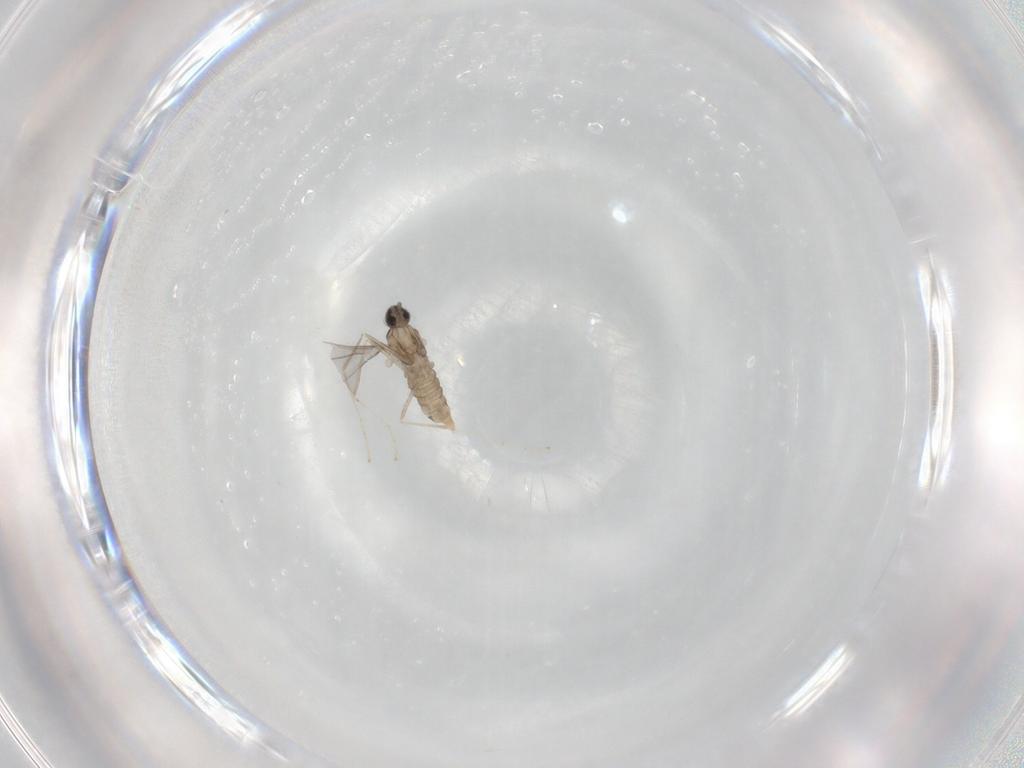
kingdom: Animalia
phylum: Arthropoda
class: Insecta
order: Diptera
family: Cecidomyiidae
